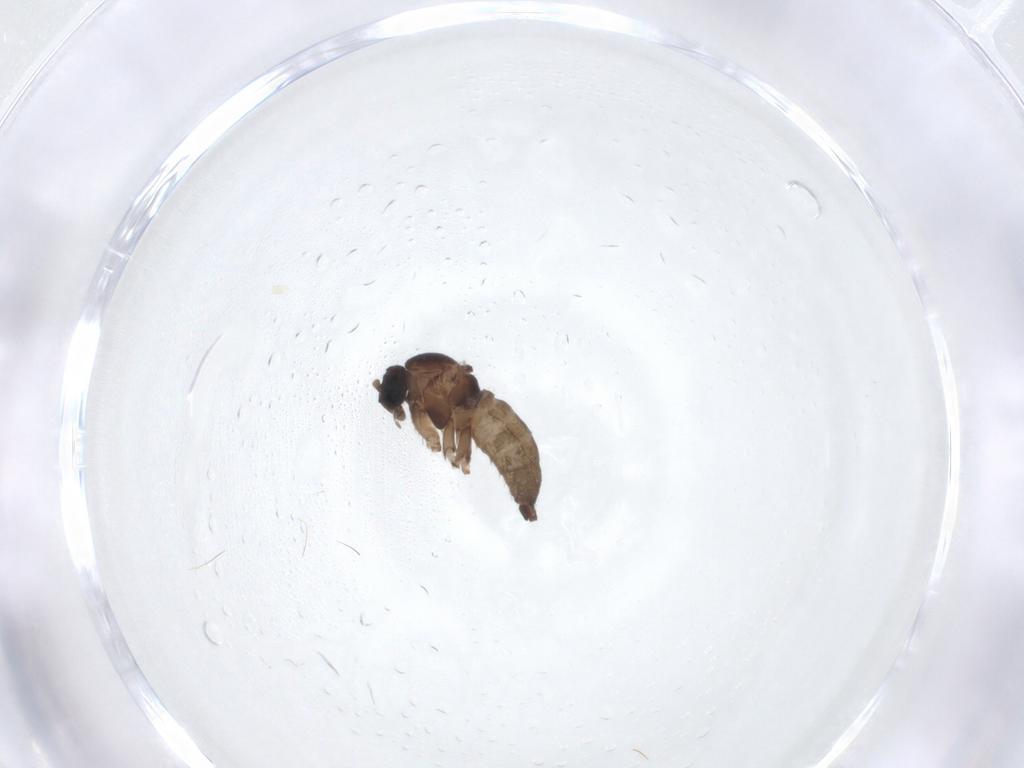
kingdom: Animalia
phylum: Arthropoda
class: Insecta
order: Diptera
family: Sciaridae
